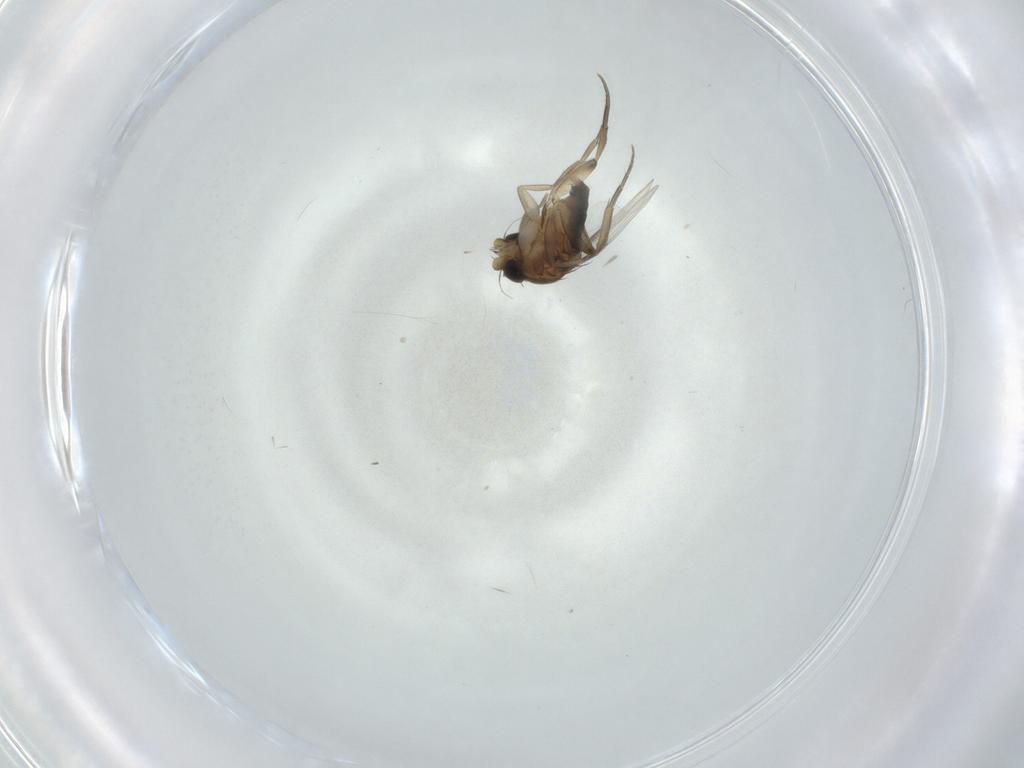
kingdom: Animalia
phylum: Arthropoda
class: Insecta
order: Diptera
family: Phoridae
